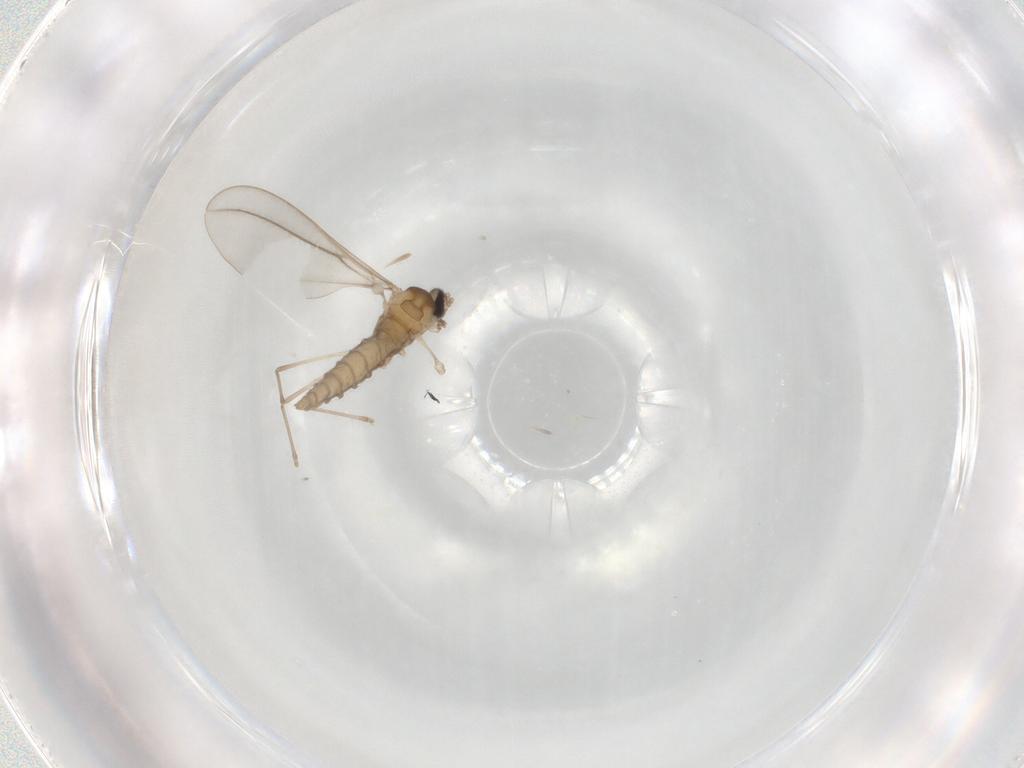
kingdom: Animalia
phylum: Arthropoda
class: Insecta
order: Diptera
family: Cecidomyiidae
